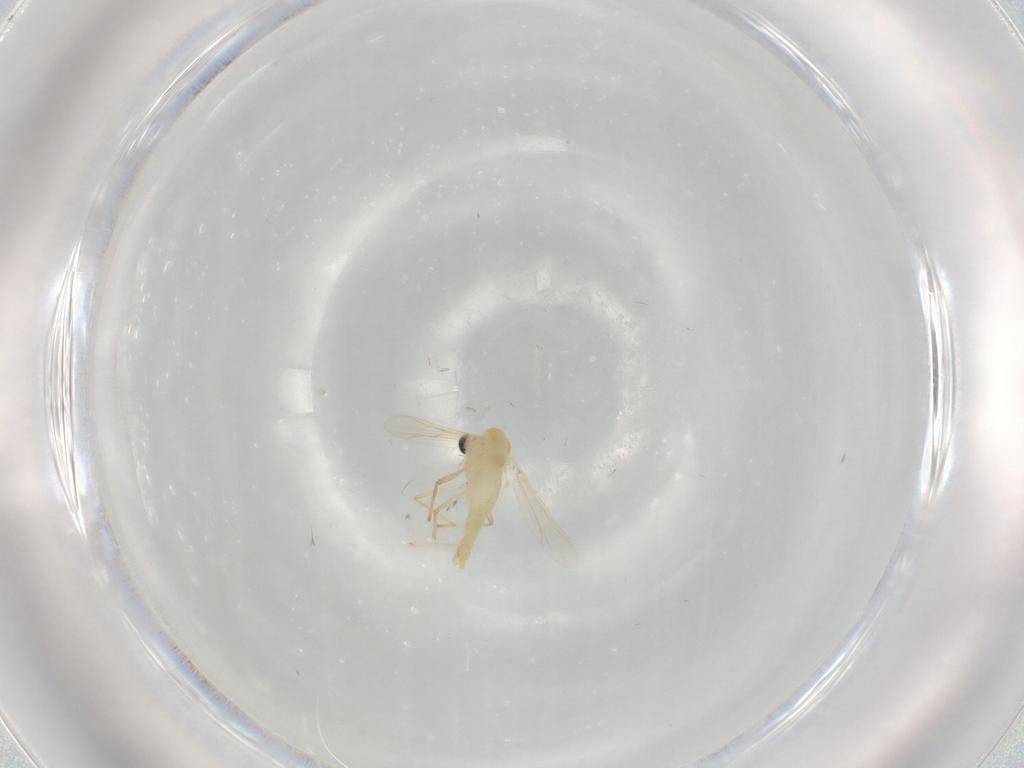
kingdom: Animalia
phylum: Arthropoda
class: Insecta
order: Diptera
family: Chironomidae
